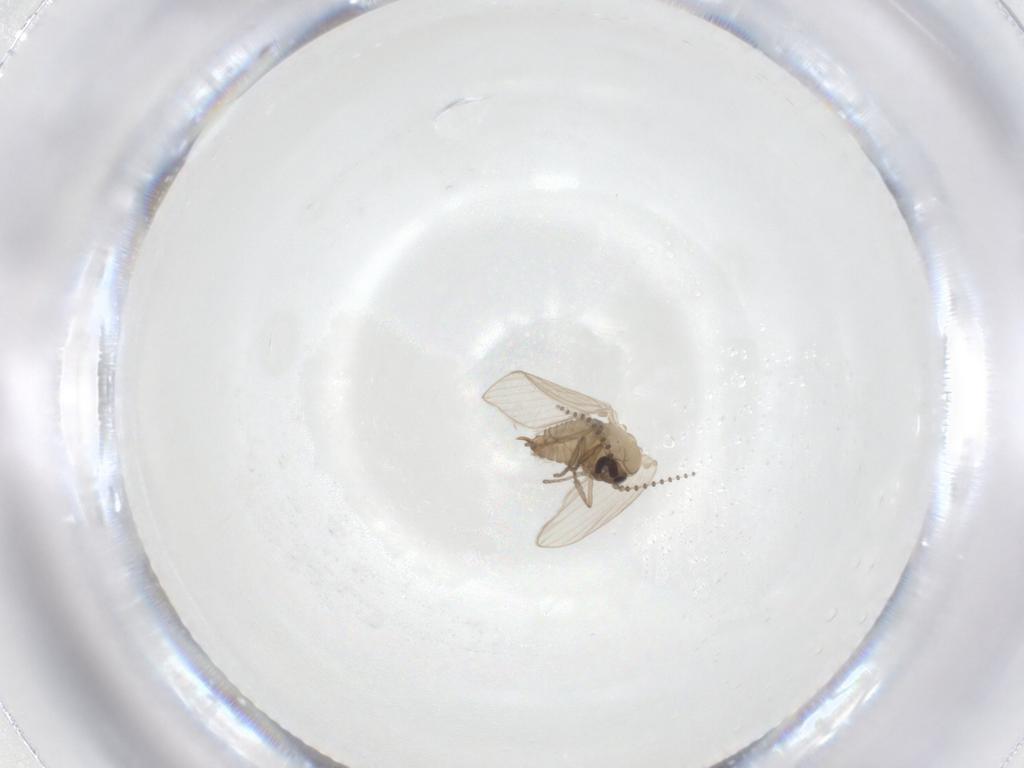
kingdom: Animalia
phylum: Arthropoda
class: Insecta
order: Diptera
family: Psychodidae
